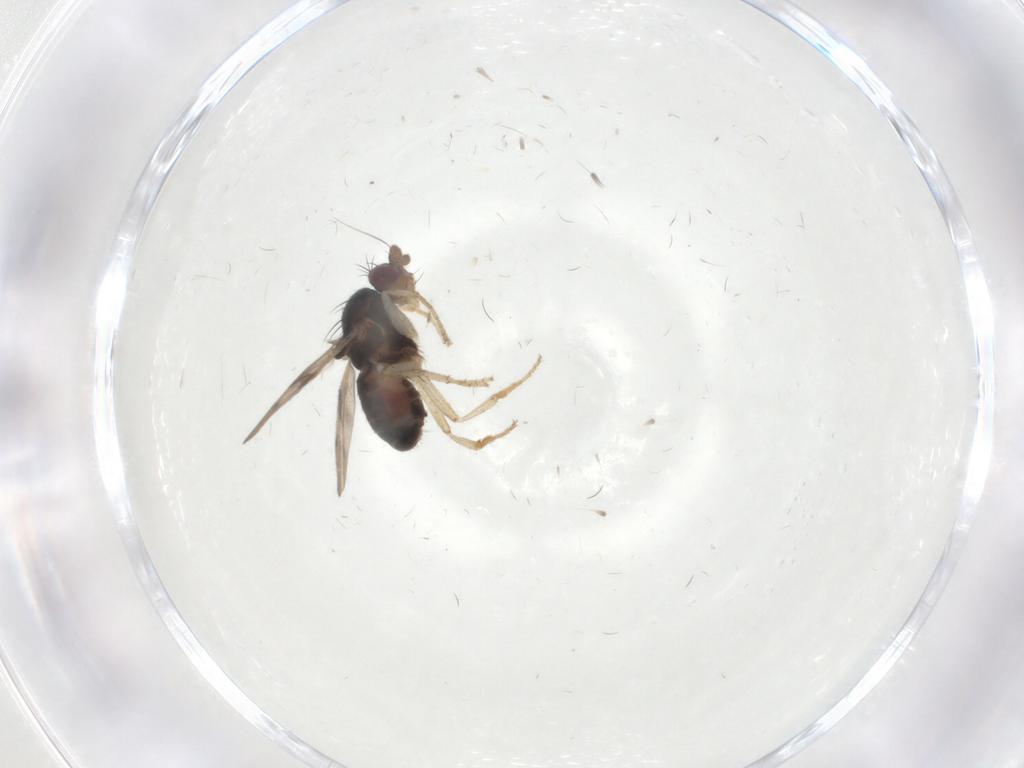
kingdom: Animalia
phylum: Arthropoda
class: Insecta
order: Diptera
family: Sphaeroceridae
